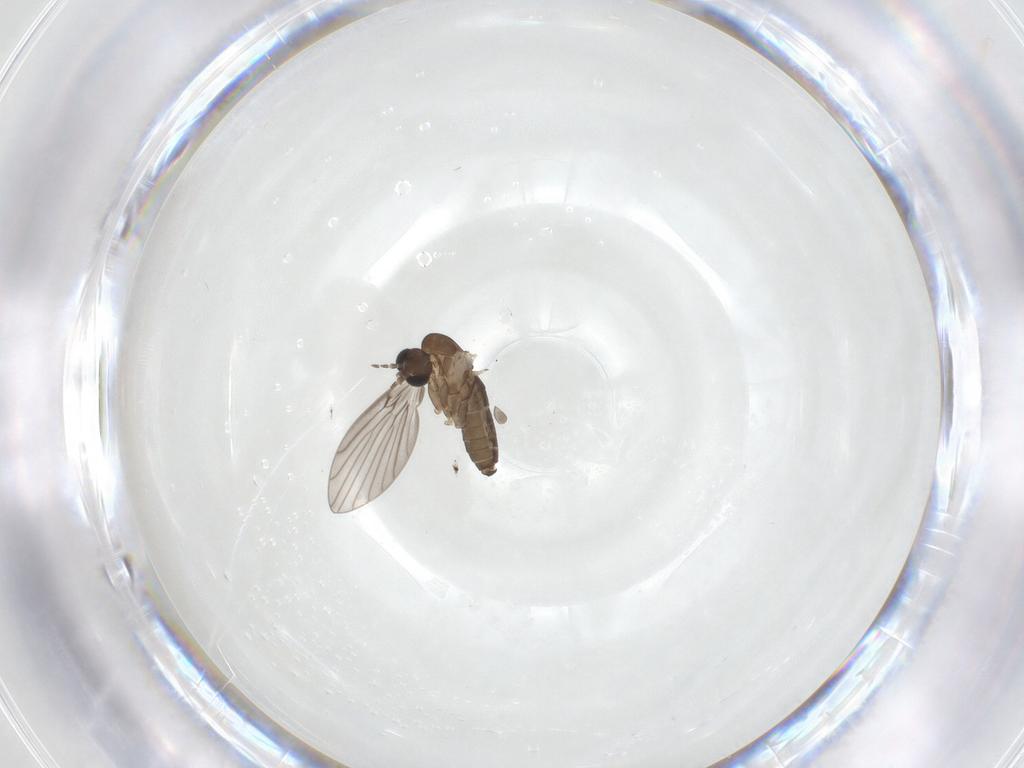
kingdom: Animalia
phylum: Arthropoda
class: Insecta
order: Diptera
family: Psychodidae
